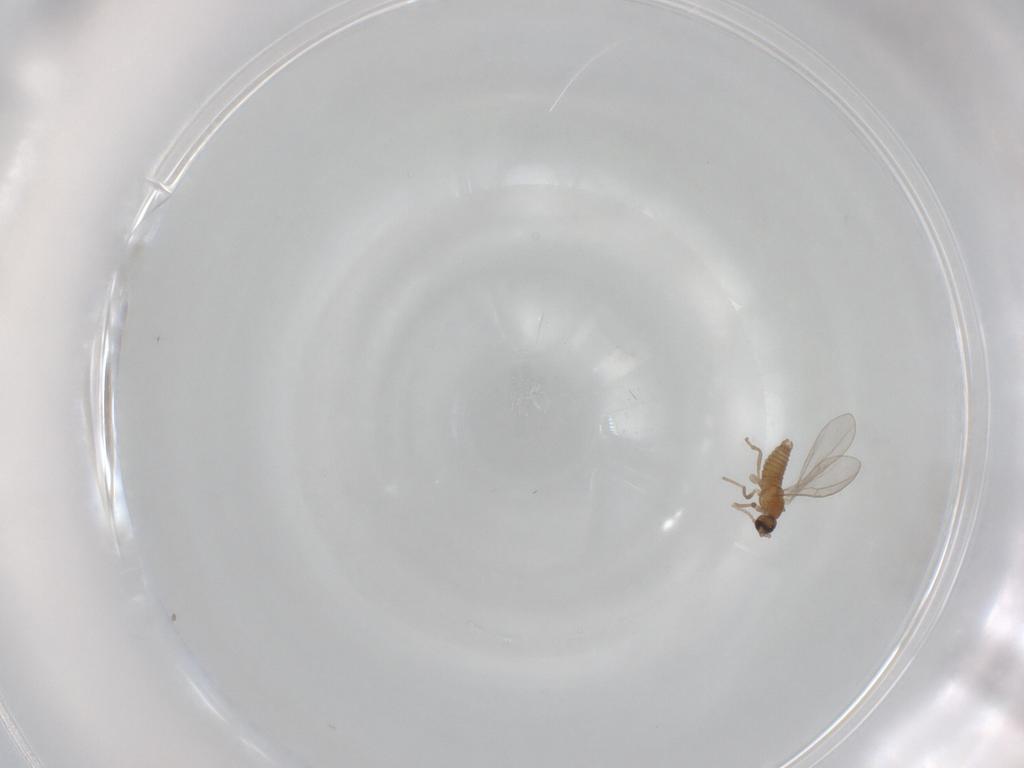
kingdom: Animalia
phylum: Arthropoda
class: Insecta
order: Diptera
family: Cecidomyiidae
